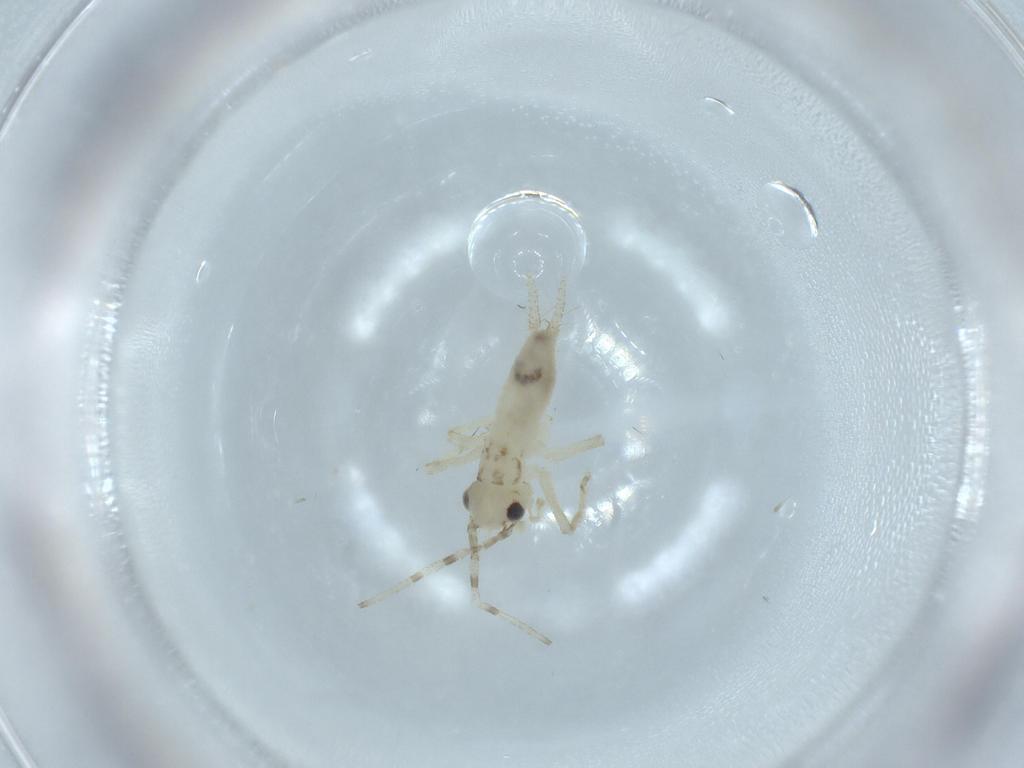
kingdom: Animalia
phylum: Arthropoda
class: Insecta
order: Orthoptera
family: Trigonidiidae
